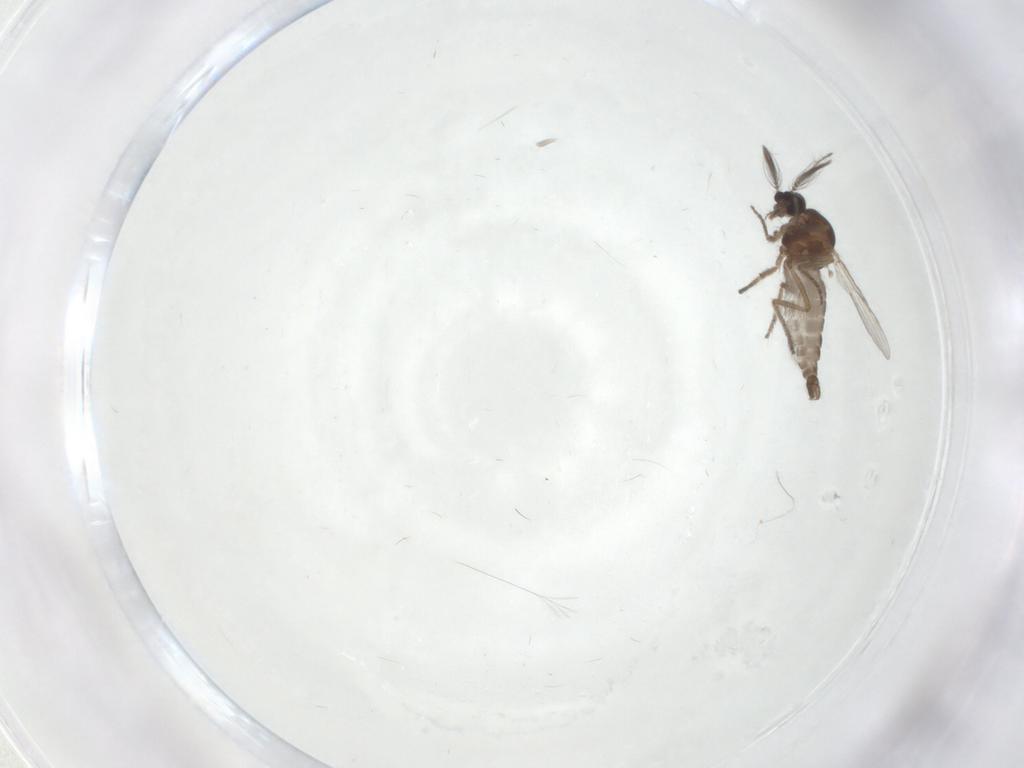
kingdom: Animalia
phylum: Arthropoda
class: Insecta
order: Diptera
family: Ceratopogonidae
